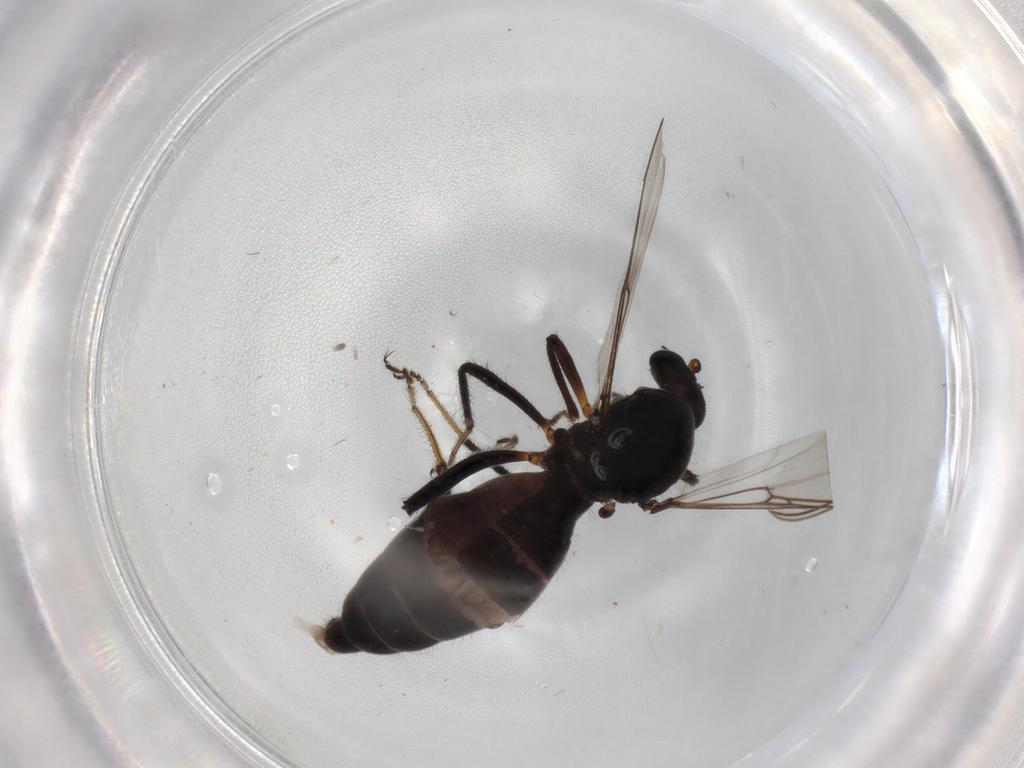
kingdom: Animalia
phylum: Arthropoda
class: Insecta
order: Diptera
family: Phoridae
